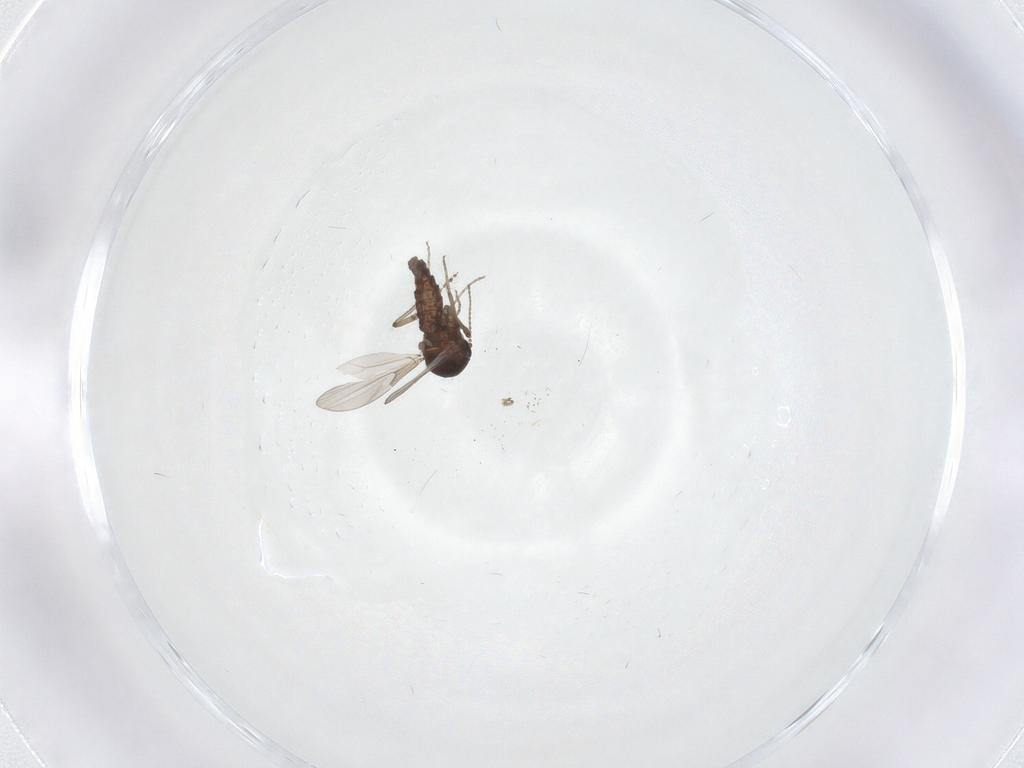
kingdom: Animalia
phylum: Arthropoda
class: Insecta
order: Diptera
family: Ceratopogonidae
